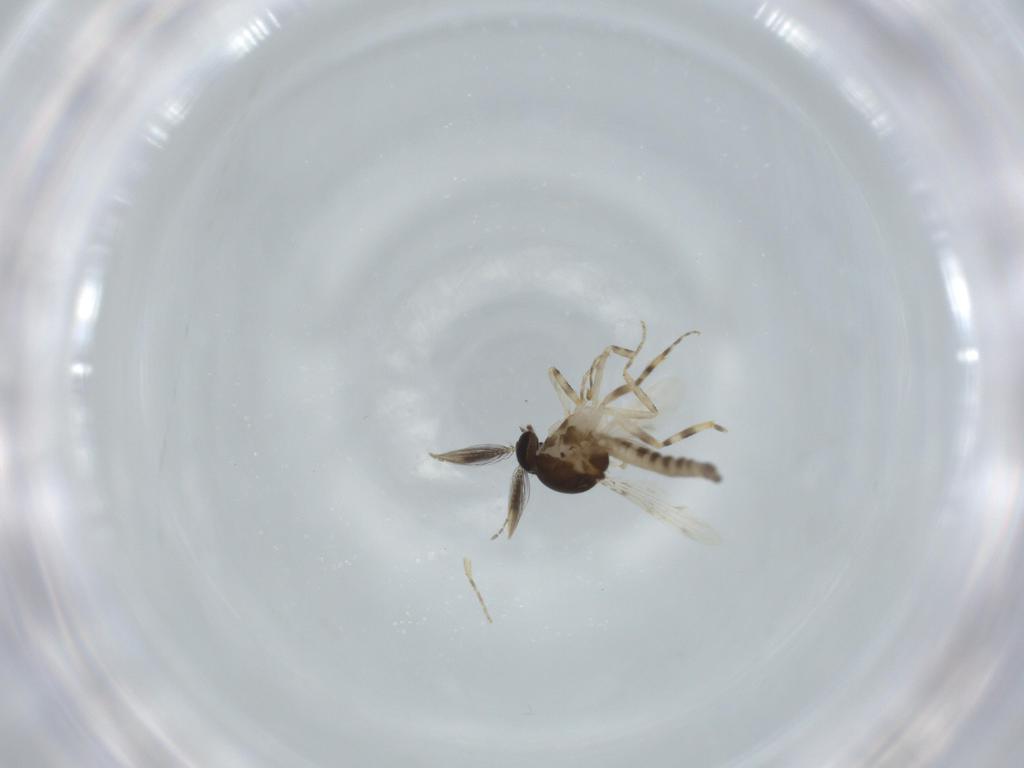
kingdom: Animalia
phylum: Arthropoda
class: Insecta
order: Diptera
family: Ceratopogonidae
